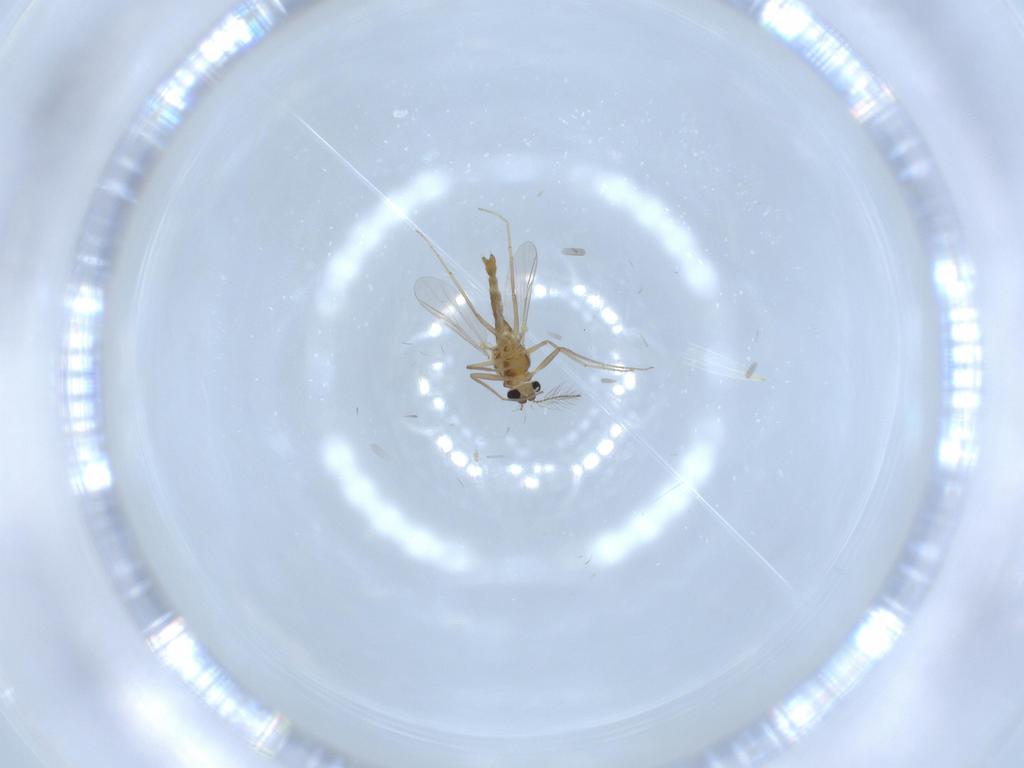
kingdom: Animalia
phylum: Arthropoda
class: Insecta
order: Diptera
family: Chironomidae
